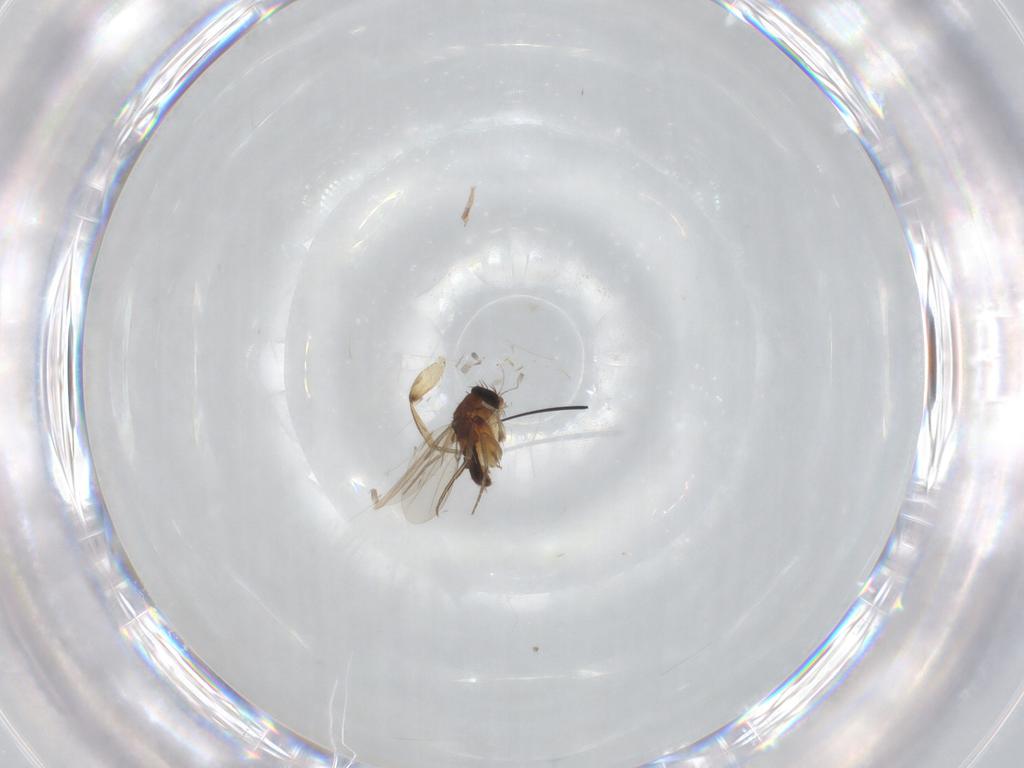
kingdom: Animalia
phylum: Arthropoda
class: Insecta
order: Diptera
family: Phoridae
